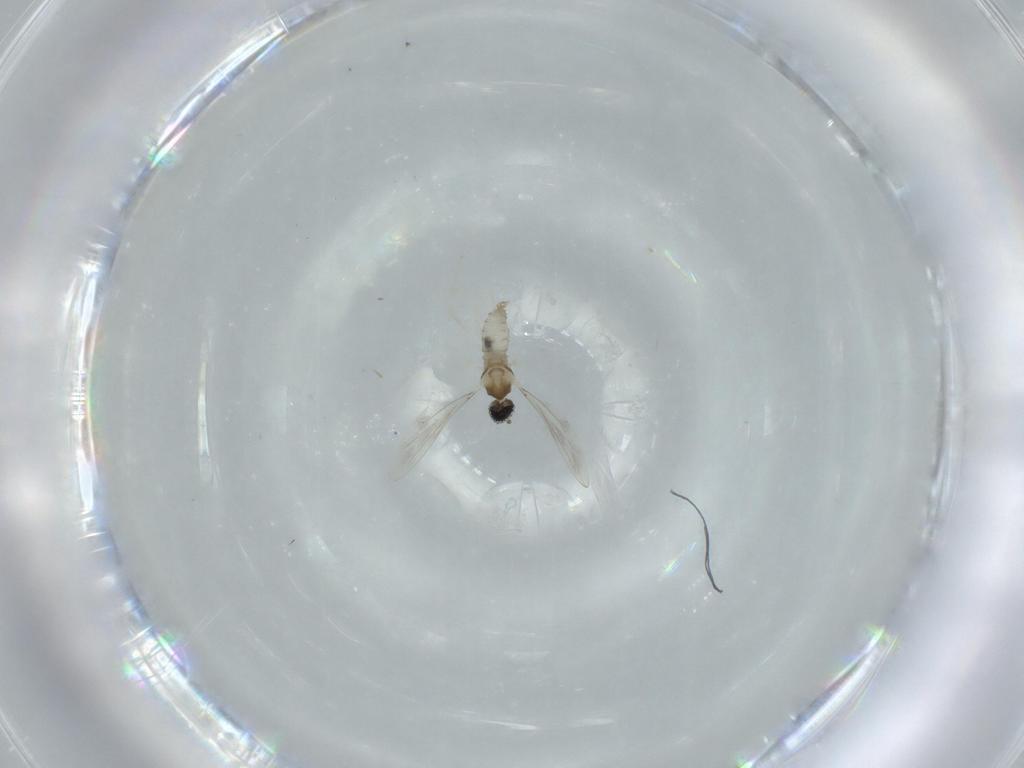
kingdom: Animalia
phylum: Arthropoda
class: Insecta
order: Diptera
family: Cecidomyiidae
